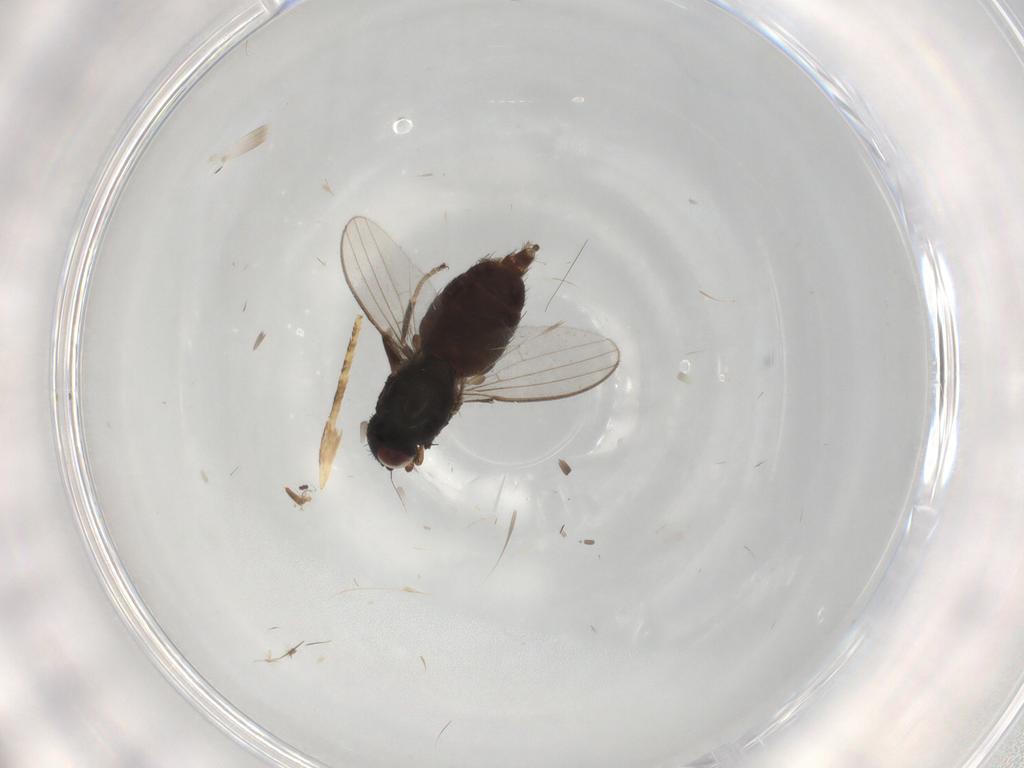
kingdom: Animalia
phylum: Arthropoda
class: Insecta
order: Diptera
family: Milichiidae
